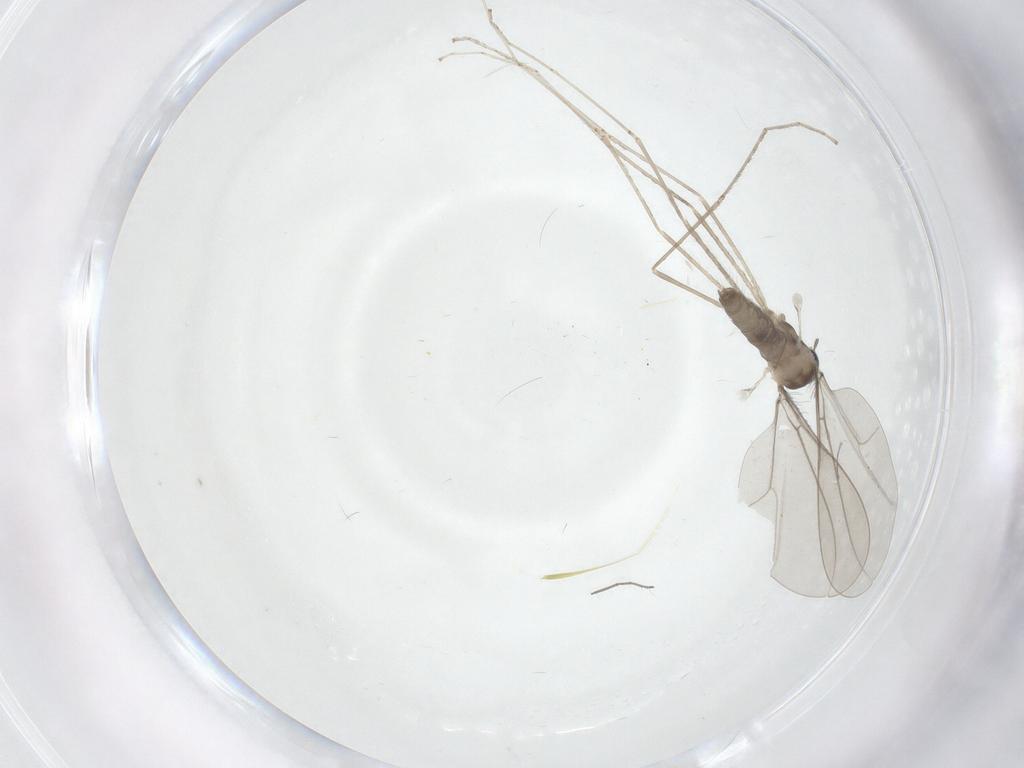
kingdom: Animalia
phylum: Arthropoda
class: Insecta
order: Diptera
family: Cecidomyiidae
